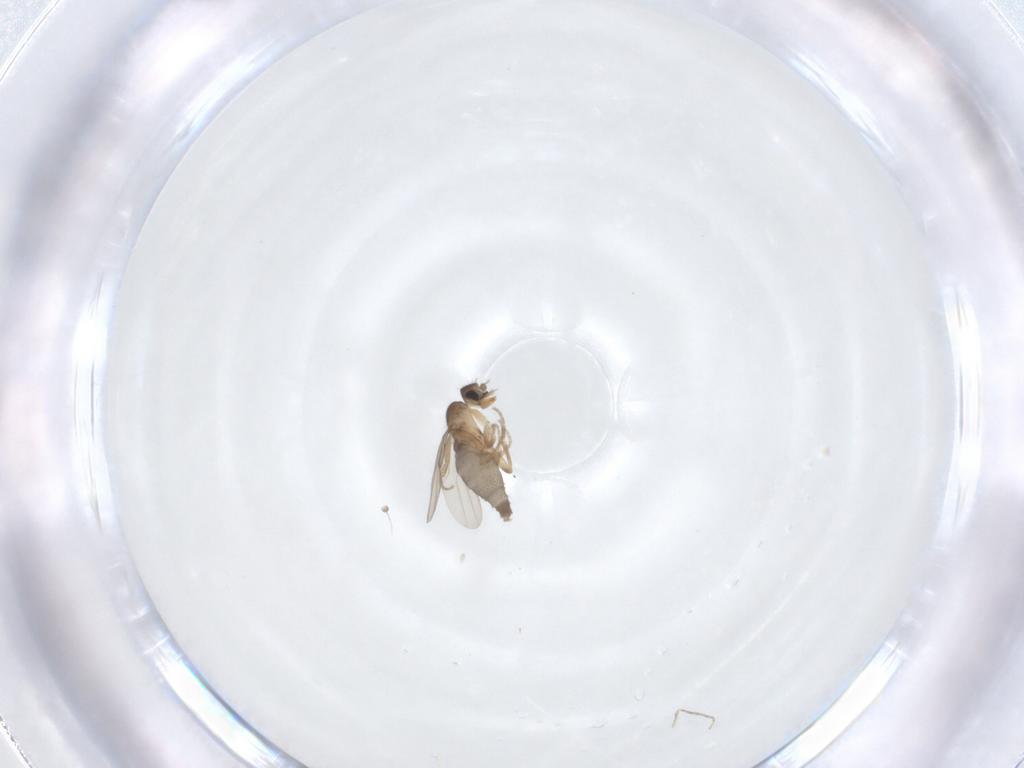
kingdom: Animalia
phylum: Arthropoda
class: Insecta
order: Diptera
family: Phoridae
